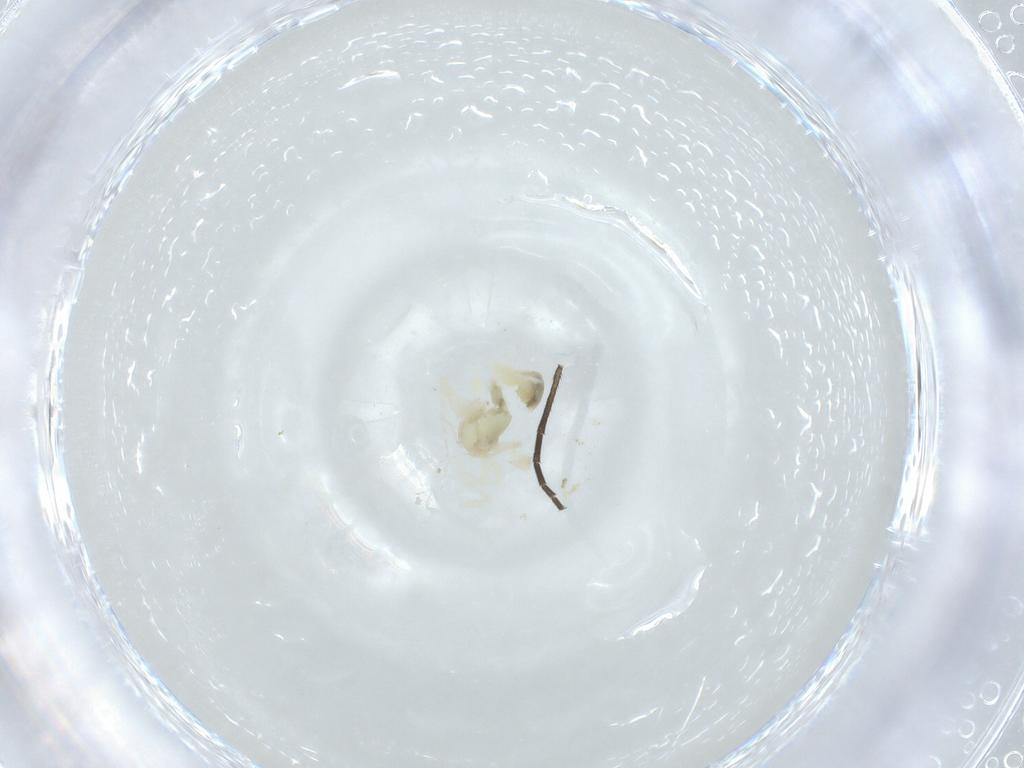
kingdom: Animalia
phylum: Arthropoda
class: Arachnida
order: Trombidiformes
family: Anystidae
